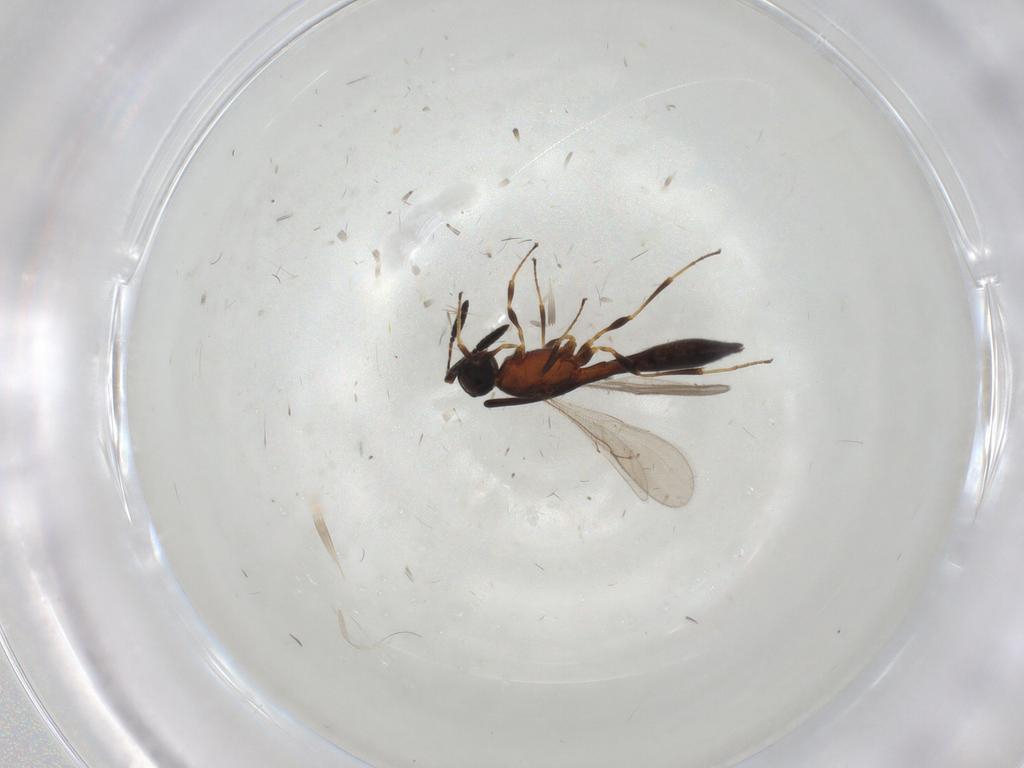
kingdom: Animalia
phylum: Arthropoda
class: Insecta
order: Hymenoptera
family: Scelionidae
